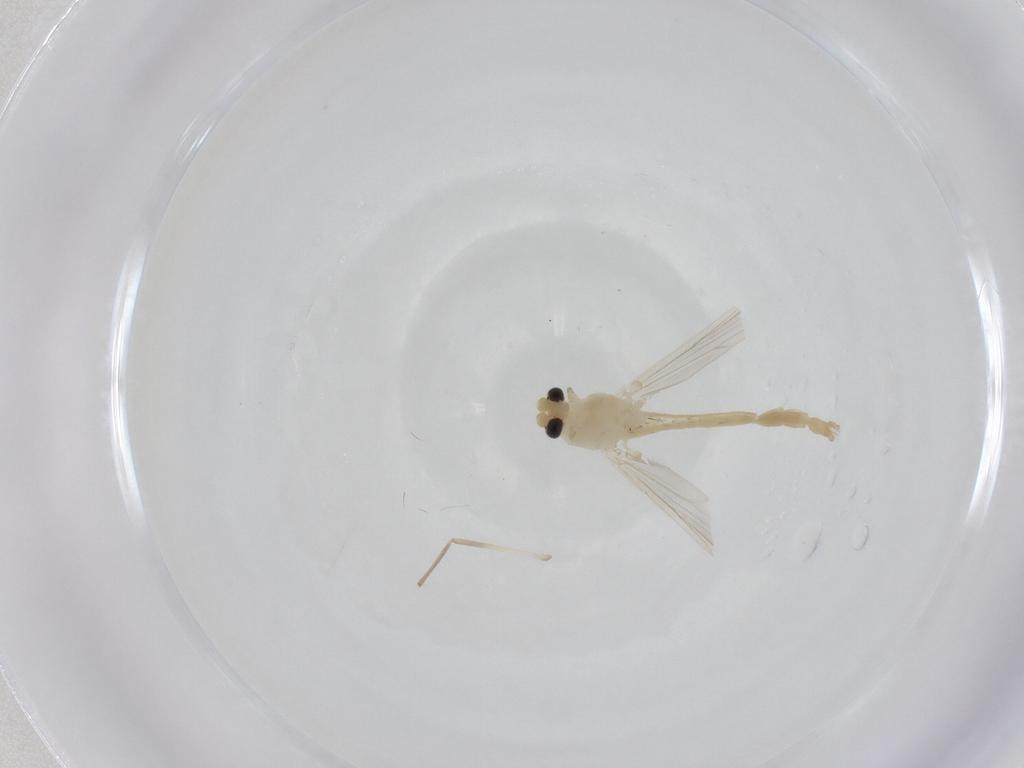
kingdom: Animalia
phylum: Arthropoda
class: Insecta
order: Diptera
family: Chironomidae
